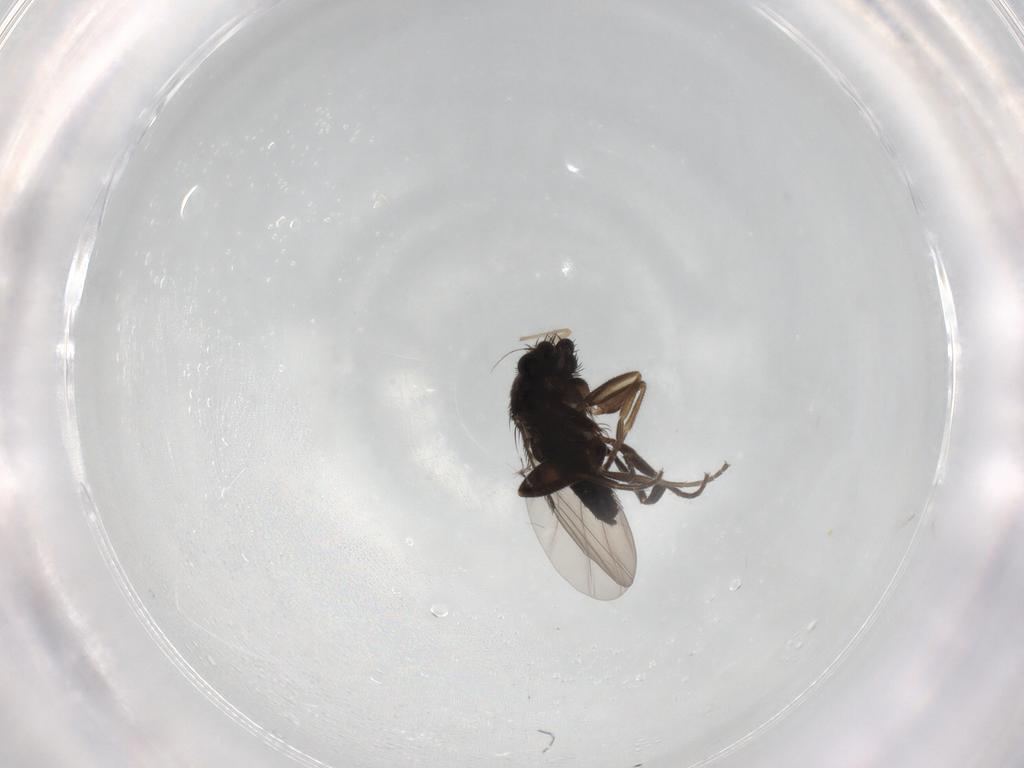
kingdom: Animalia
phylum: Arthropoda
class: Insecta
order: Diptera
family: Phoridae
